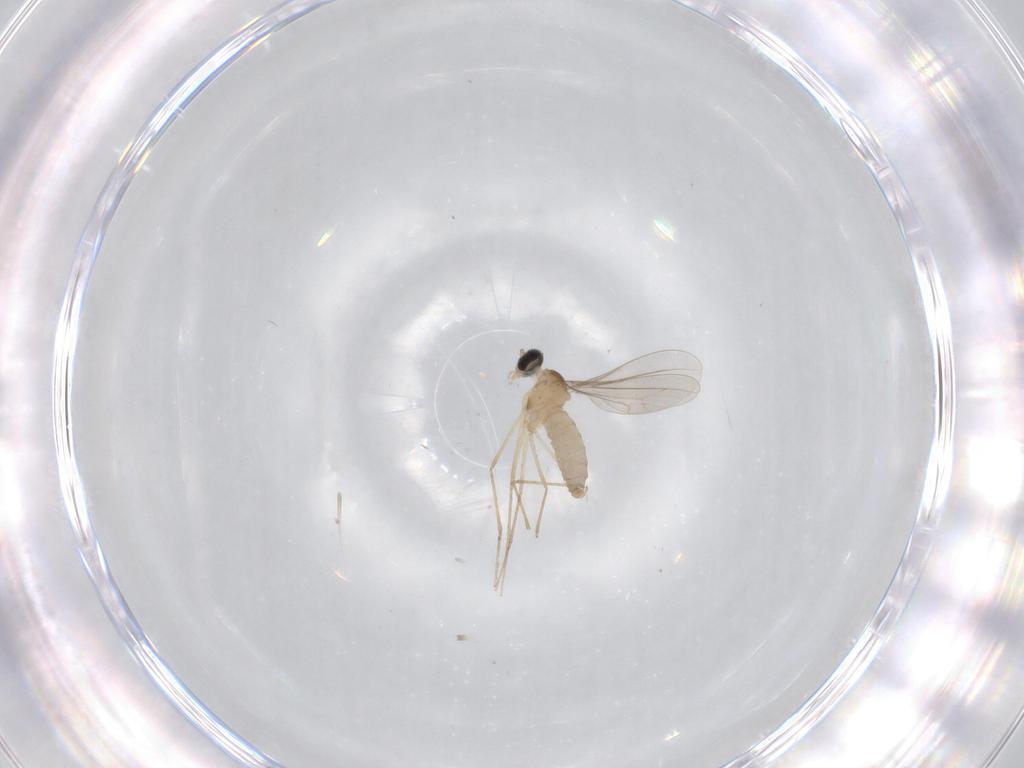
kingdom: Animalia
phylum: Arthropoda
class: Insecta
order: Diptera
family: Cecidomyiidae
